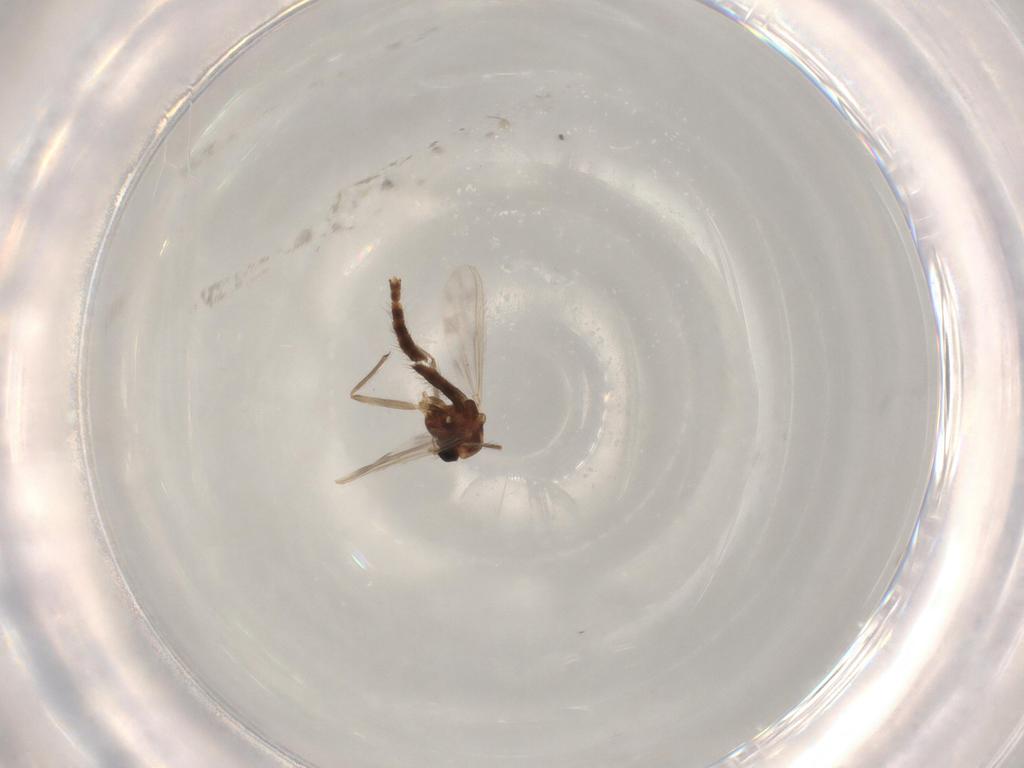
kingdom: Animalia
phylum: Arthropoda
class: Insecta
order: Diptera
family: Chironomidae
